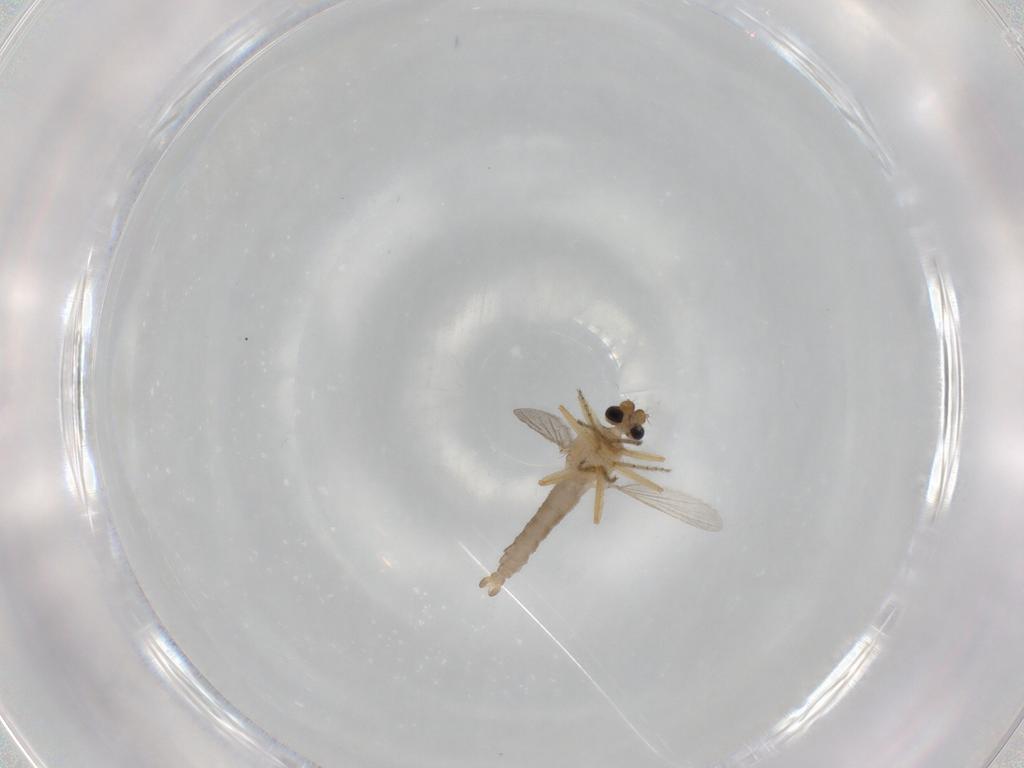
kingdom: Animalia
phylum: Arthropoda
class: Insecta
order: Diptera
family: Ceratopogonidae
